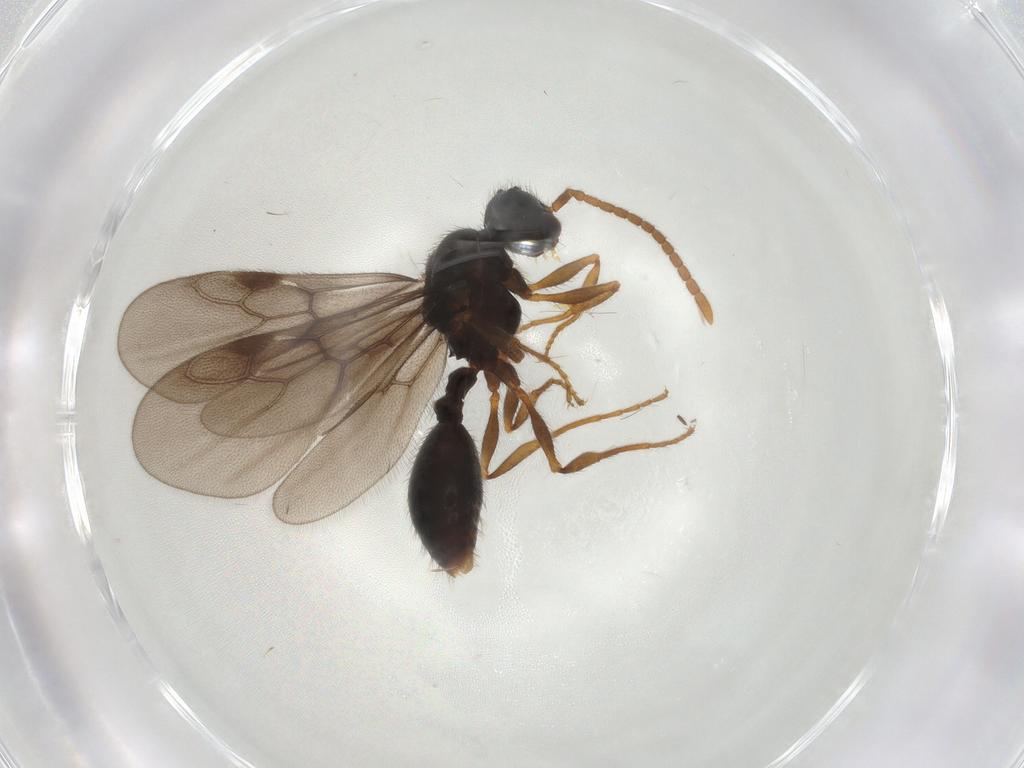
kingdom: Animalia
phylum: Arthropoda
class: Insecta
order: Hymenoptera
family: Formicidae
